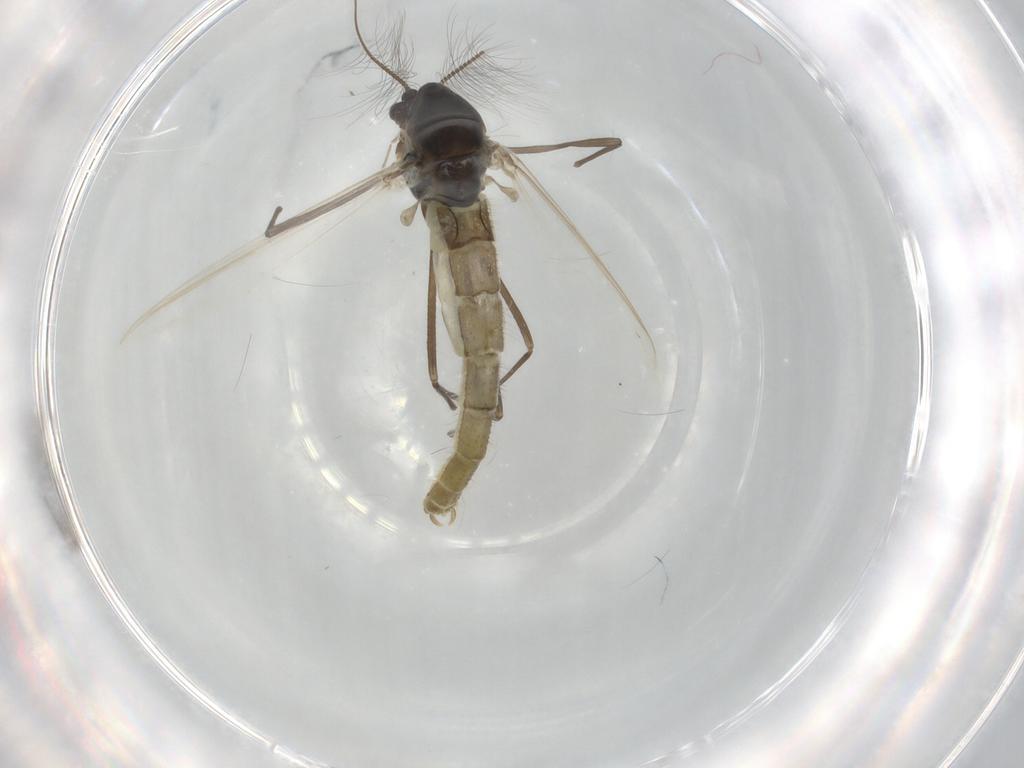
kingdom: Animalia
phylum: Arthropoda
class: Insecta
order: Diptera
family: Chironomidae
